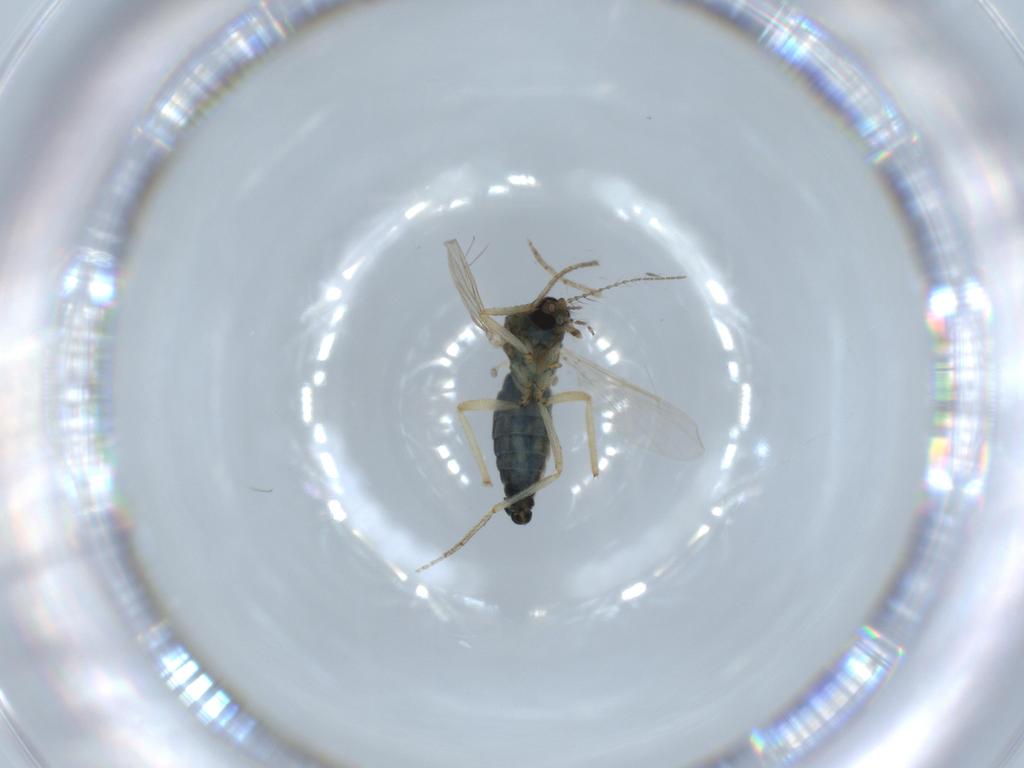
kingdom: Animalia
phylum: Arthropoda
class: Insecta
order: Diptera
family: Ceratopogonidae
